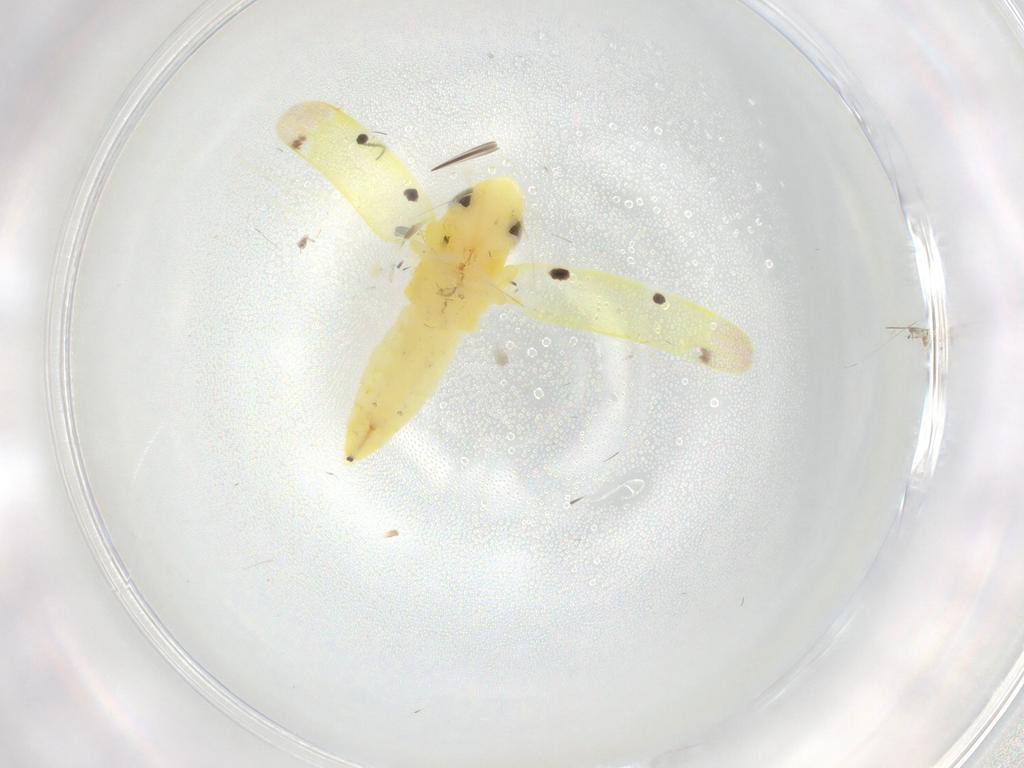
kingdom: Animalia
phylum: Arthropoda
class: Insecta
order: Hemiptera
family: Cicadellidae
